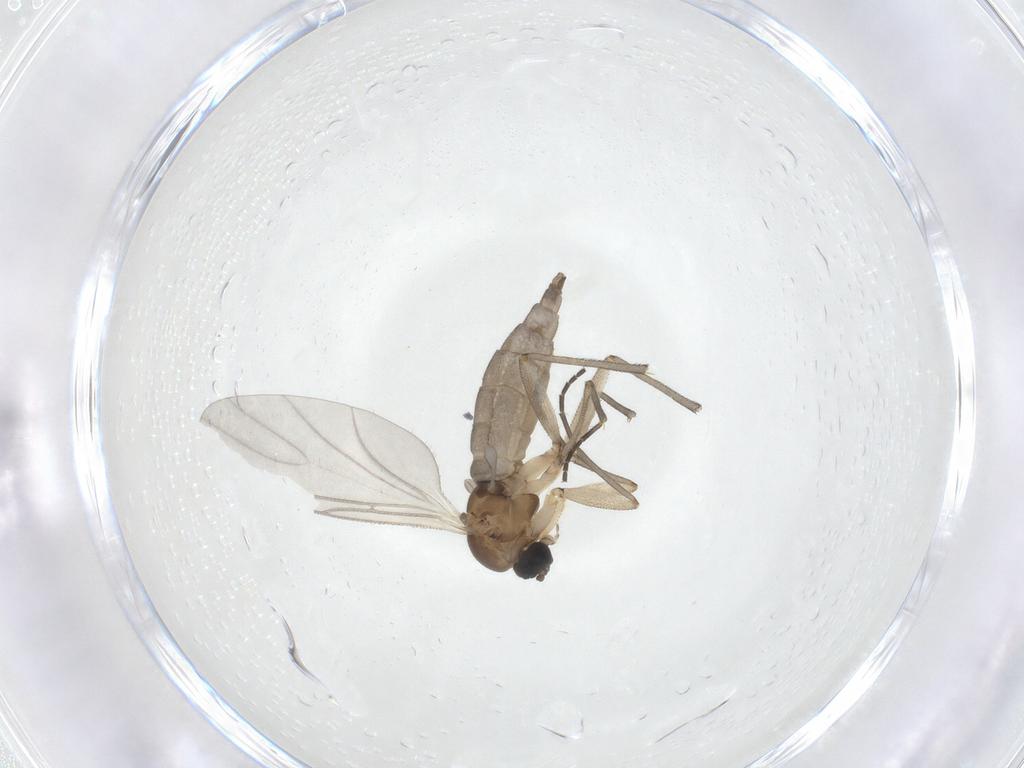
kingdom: Animalia
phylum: Arthropoda
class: Insecta
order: Diptera
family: Sciaridae
